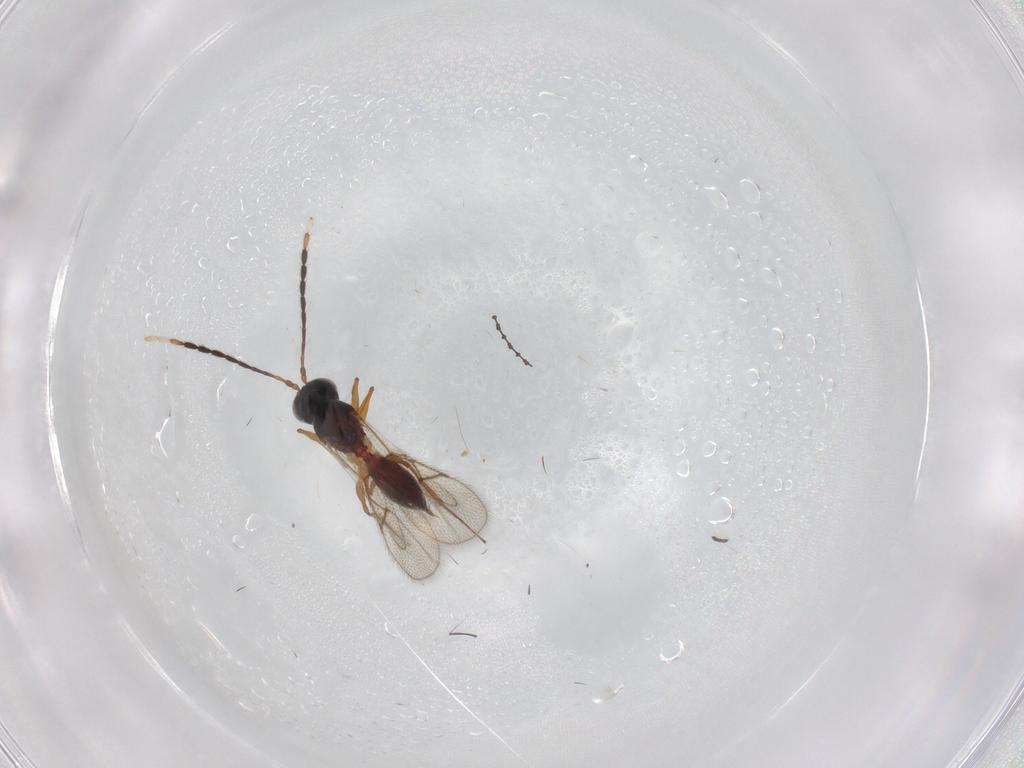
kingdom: Animalia
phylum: Arthropoda
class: Insecta
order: Hymenoptera
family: Figitidae
